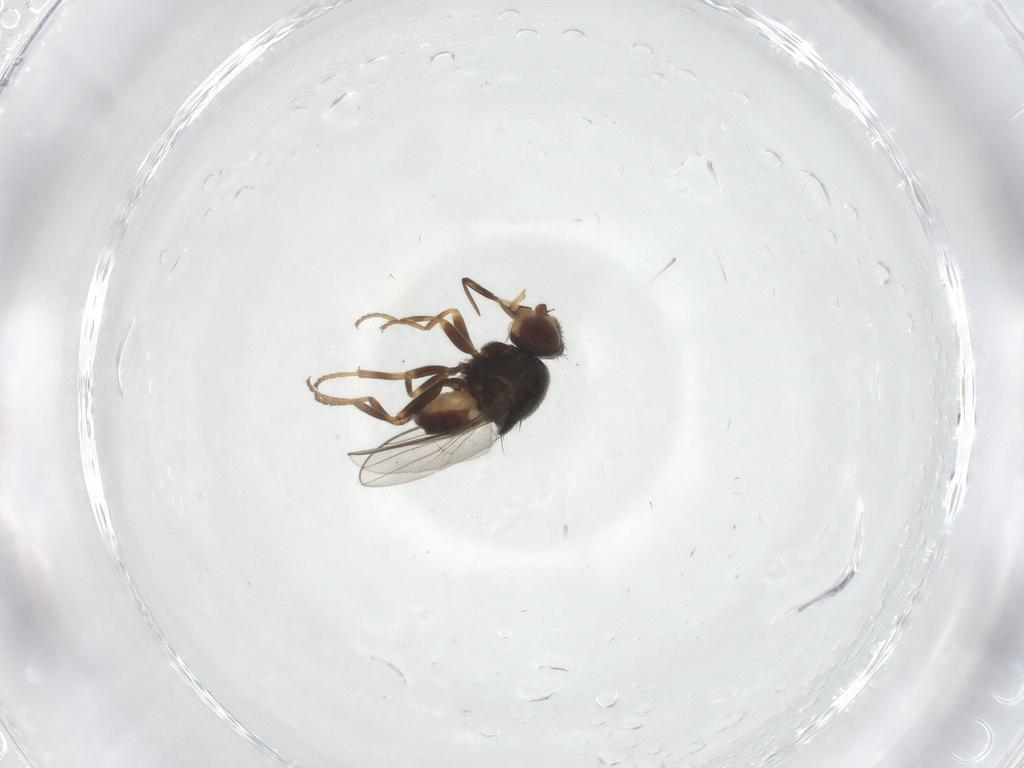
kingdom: Animalia
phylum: Arthropoda
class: Insecta
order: Diptera
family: Chloropidae
